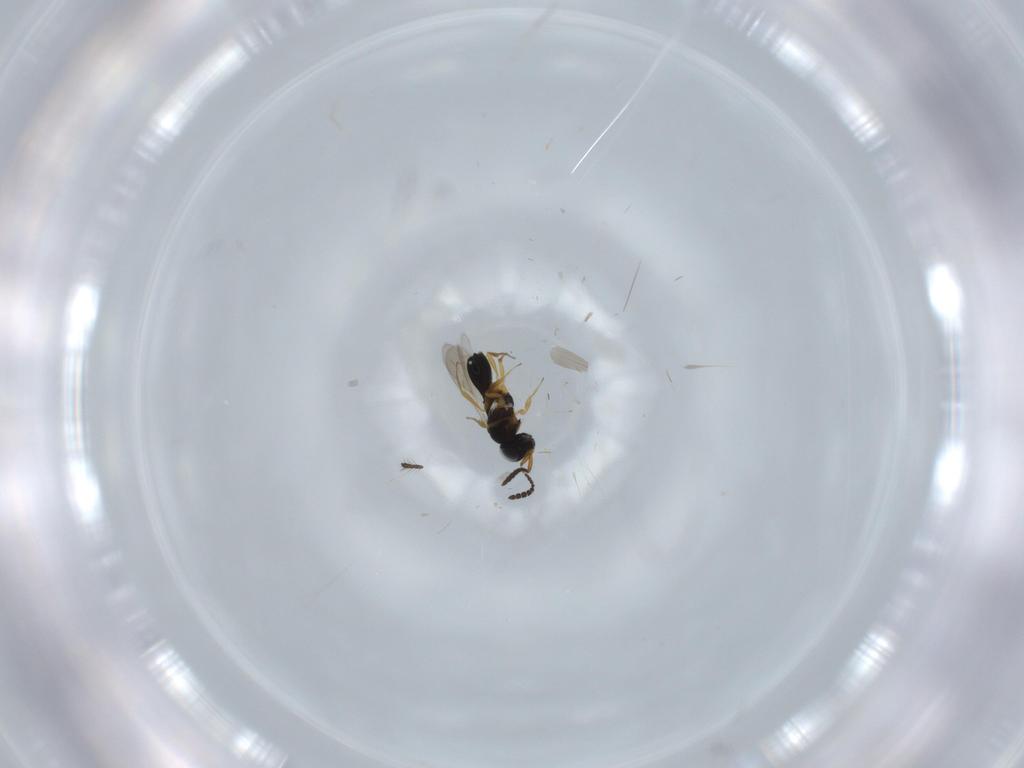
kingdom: Animalia
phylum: Arthropoda
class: Insecta
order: Hymenoptera
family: Scelionidae
